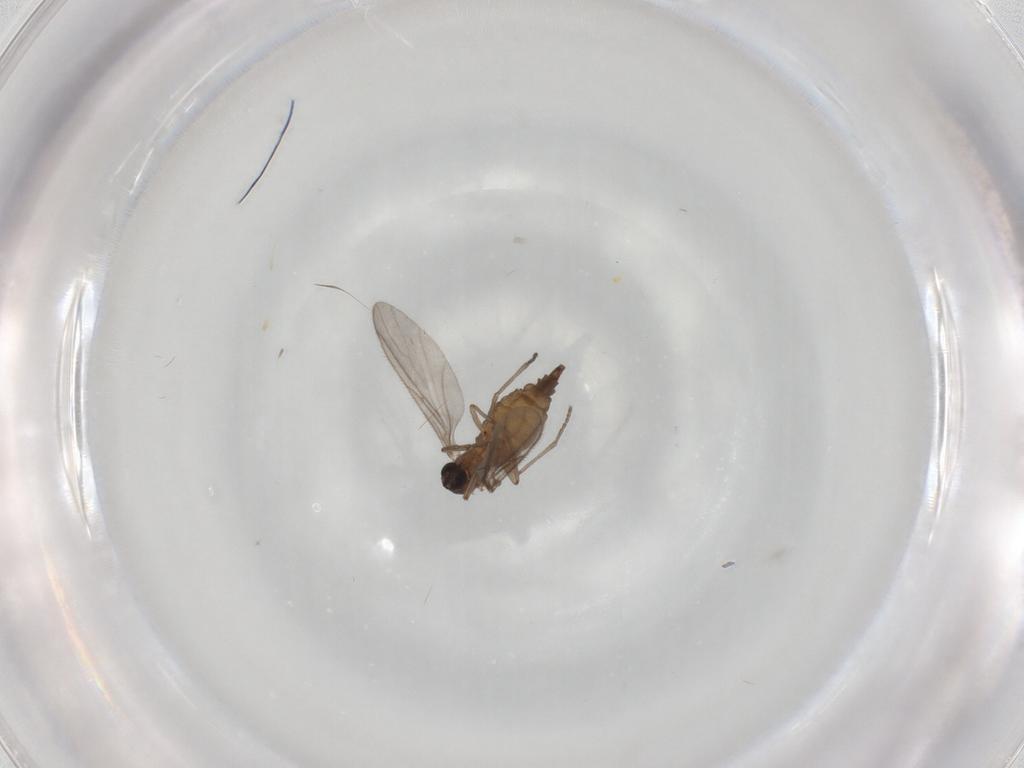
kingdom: Animalia
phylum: Arthropoda
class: Insecta
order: Diptera
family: Sciaridae
